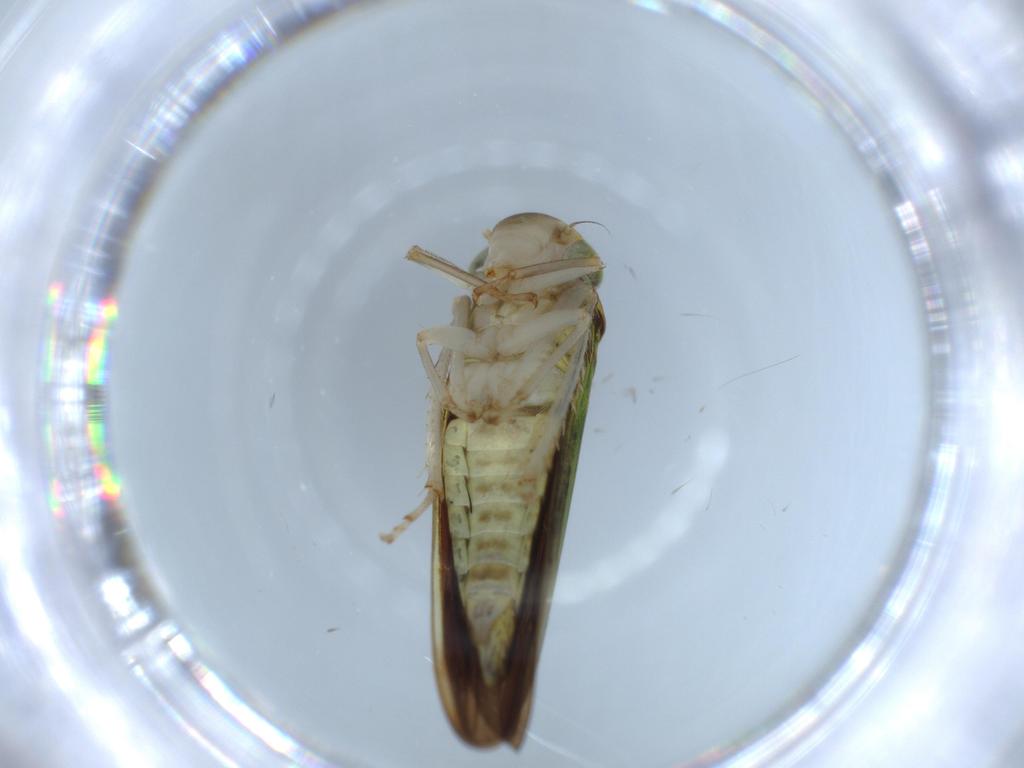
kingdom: Animalia
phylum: Arthropoda
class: Insecta
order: Hemiptera
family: Cicadellidae
